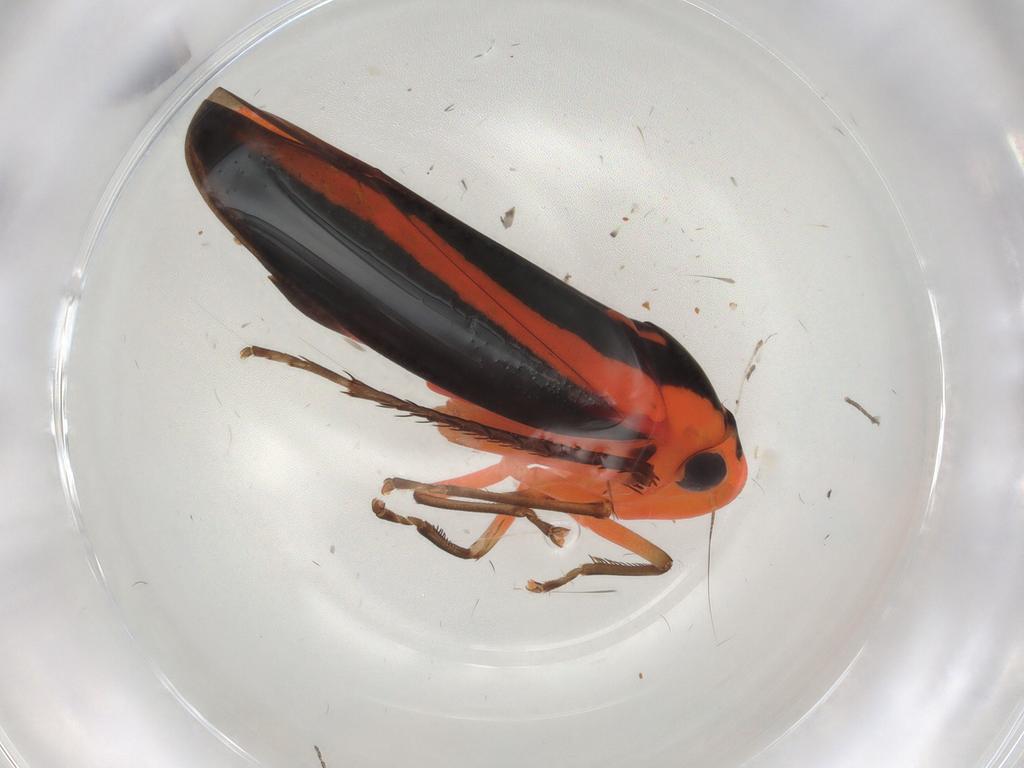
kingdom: Animalia
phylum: Arthropoda
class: Insecta
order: Hemiptera
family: Cicadellidae
